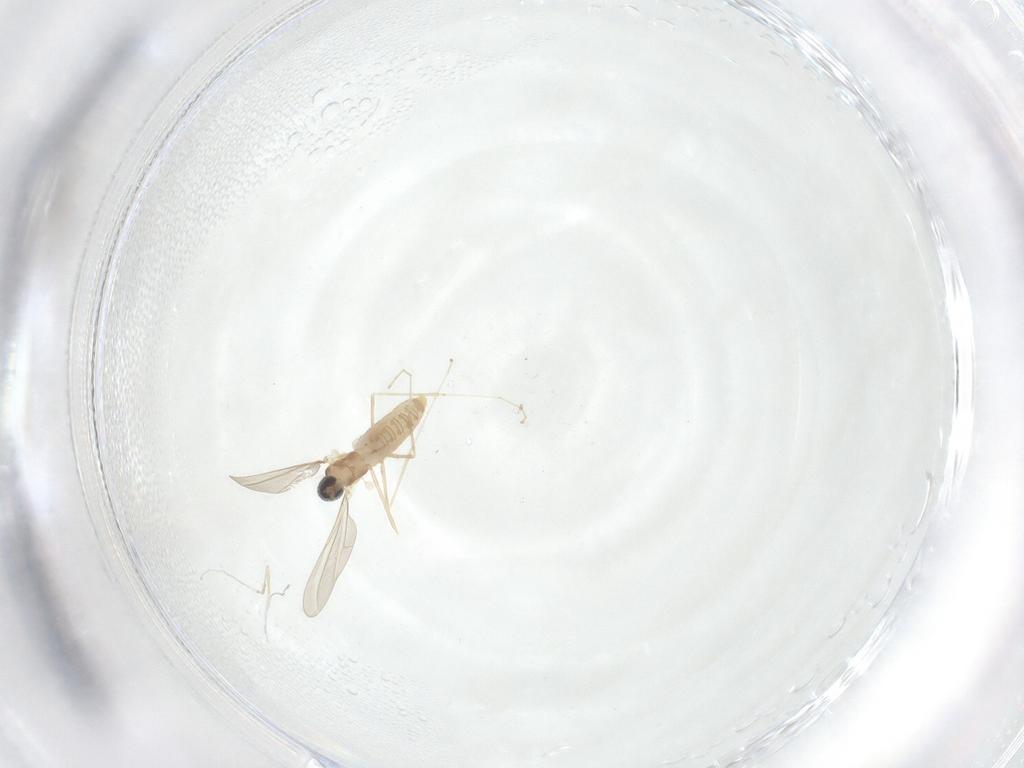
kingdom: Animalia
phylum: Arthropoda
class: Insecta
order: Diptera
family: Cecidomyiidae
